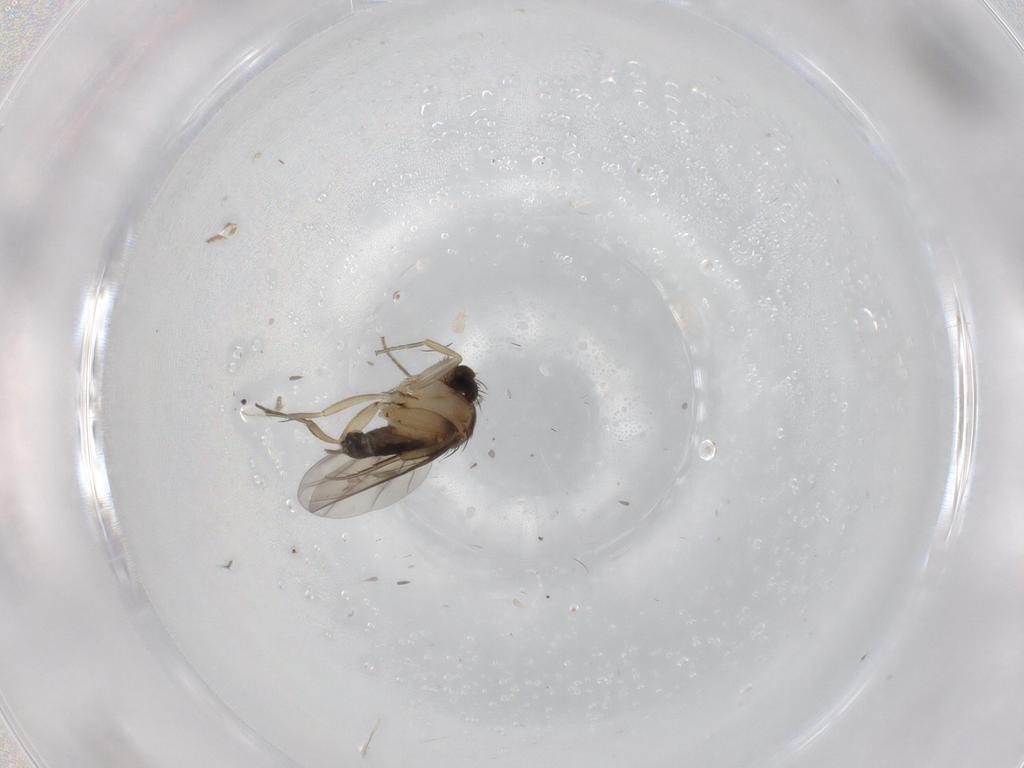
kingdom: Animalia
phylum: Arthropoda
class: Insecta
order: Diptera
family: Phoridae
